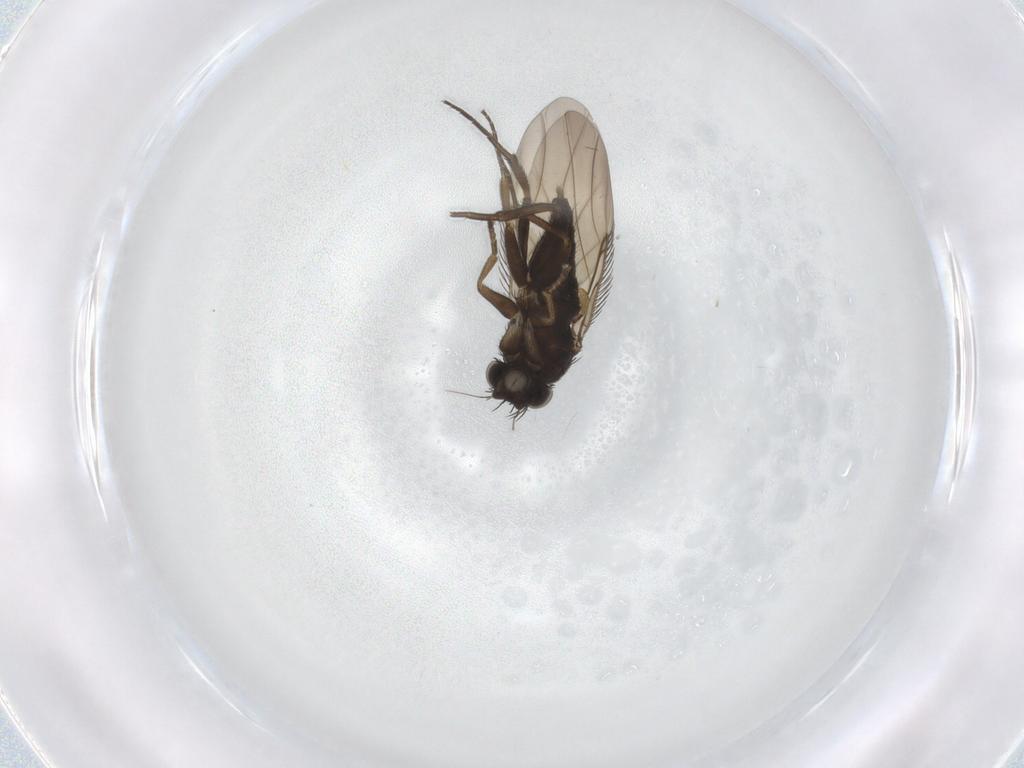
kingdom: Animalia
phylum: Arthropoda
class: Insecta
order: Diptera
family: Phoridae
